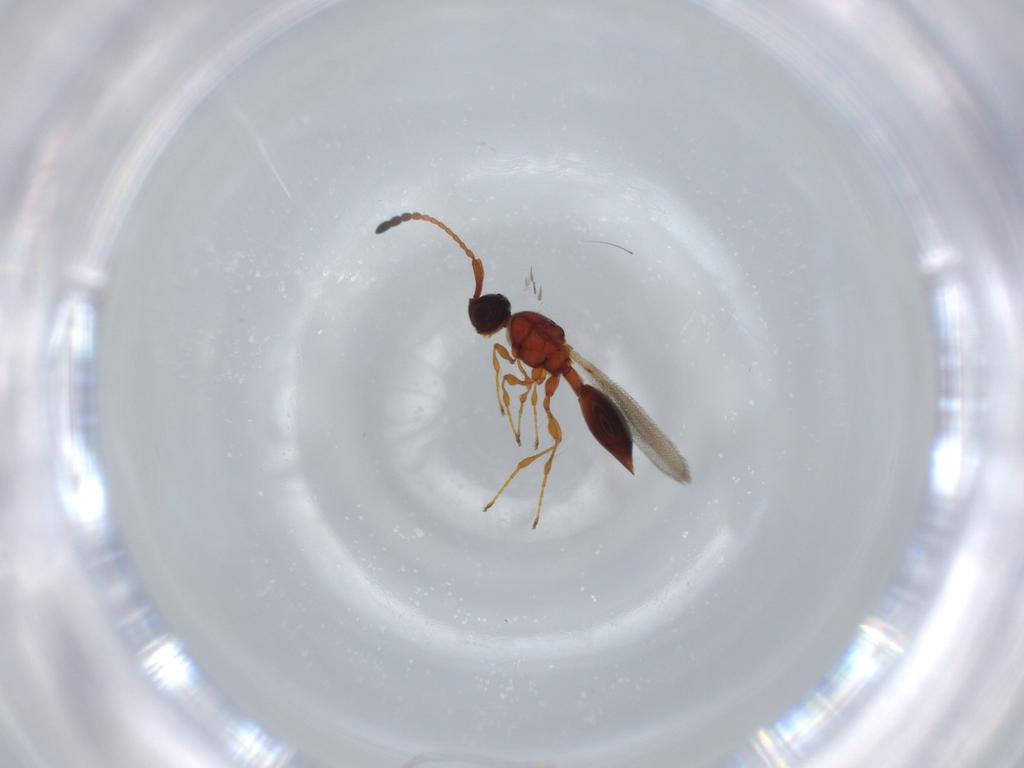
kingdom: Animalia
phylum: Arthropoda
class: Insecta
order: Hymenoptera
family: Diapriidae
